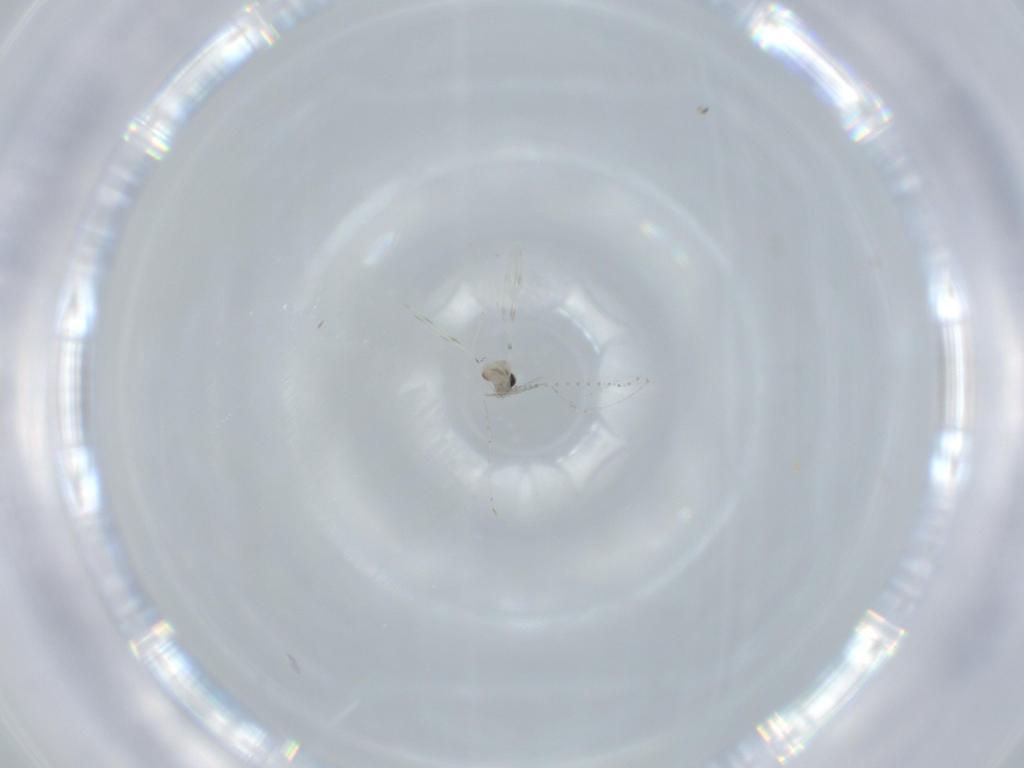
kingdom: Animalia
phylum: Arthropoda
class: Insecta
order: Diptera
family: Cecidomyiidae
